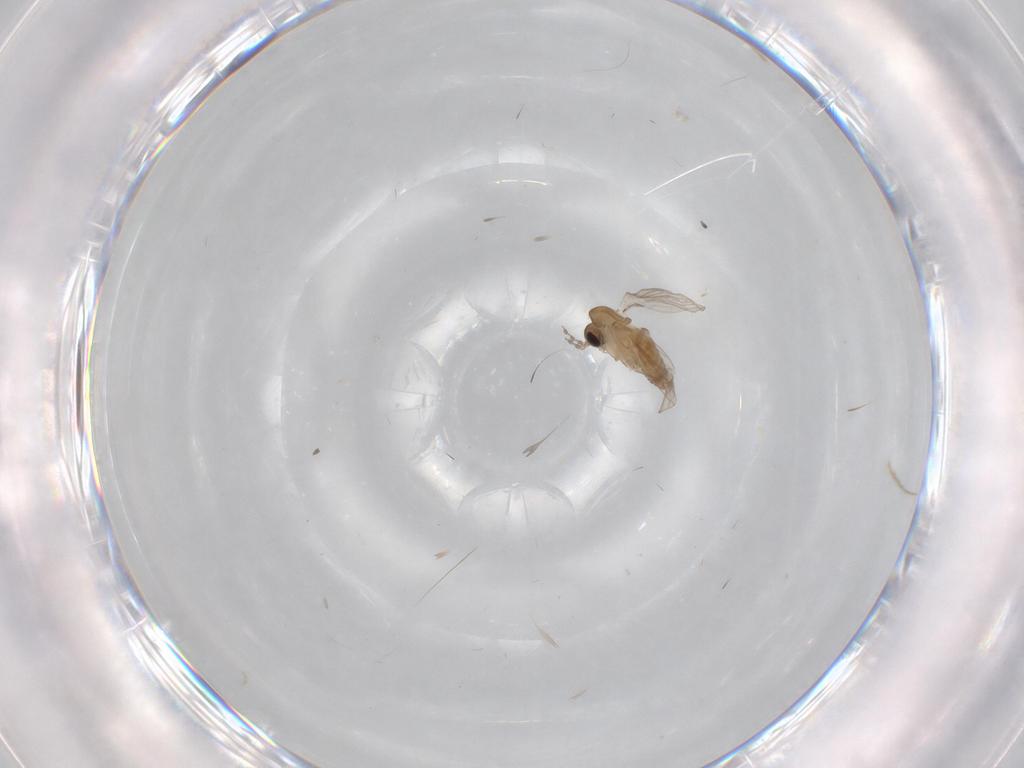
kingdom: Animalia
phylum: Arthropoda
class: Insecta
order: Diptera
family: Psychodidae
